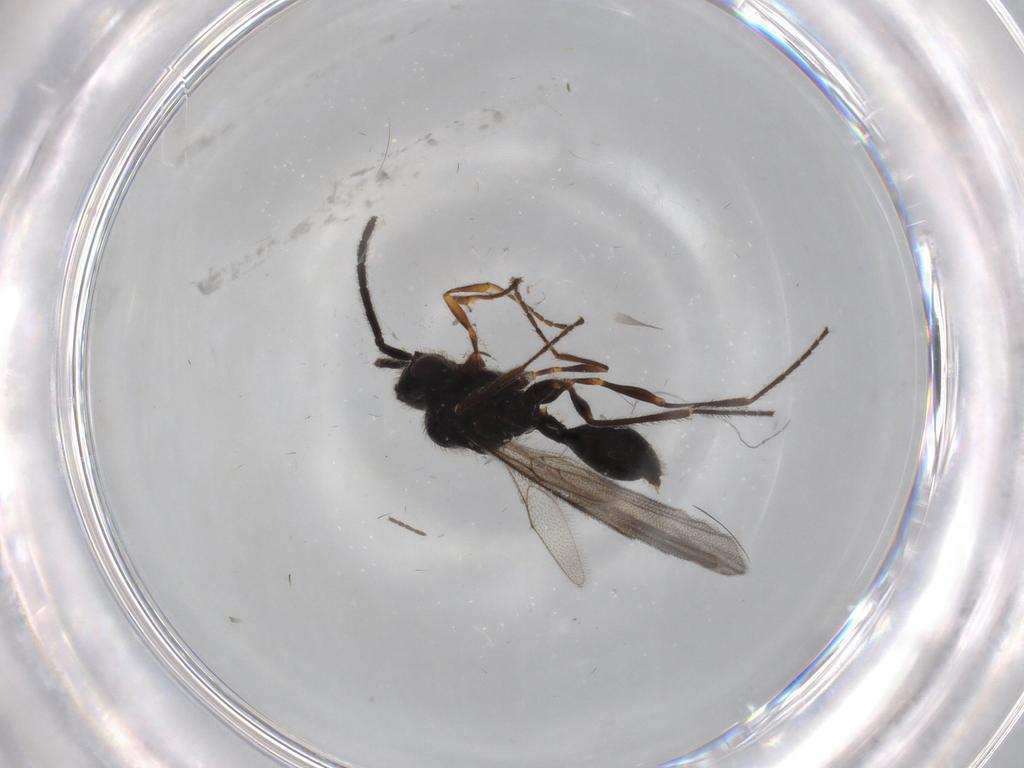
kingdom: Animalia
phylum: Arthropoda
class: Insecta
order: Hymenoptera
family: Diapriidae
